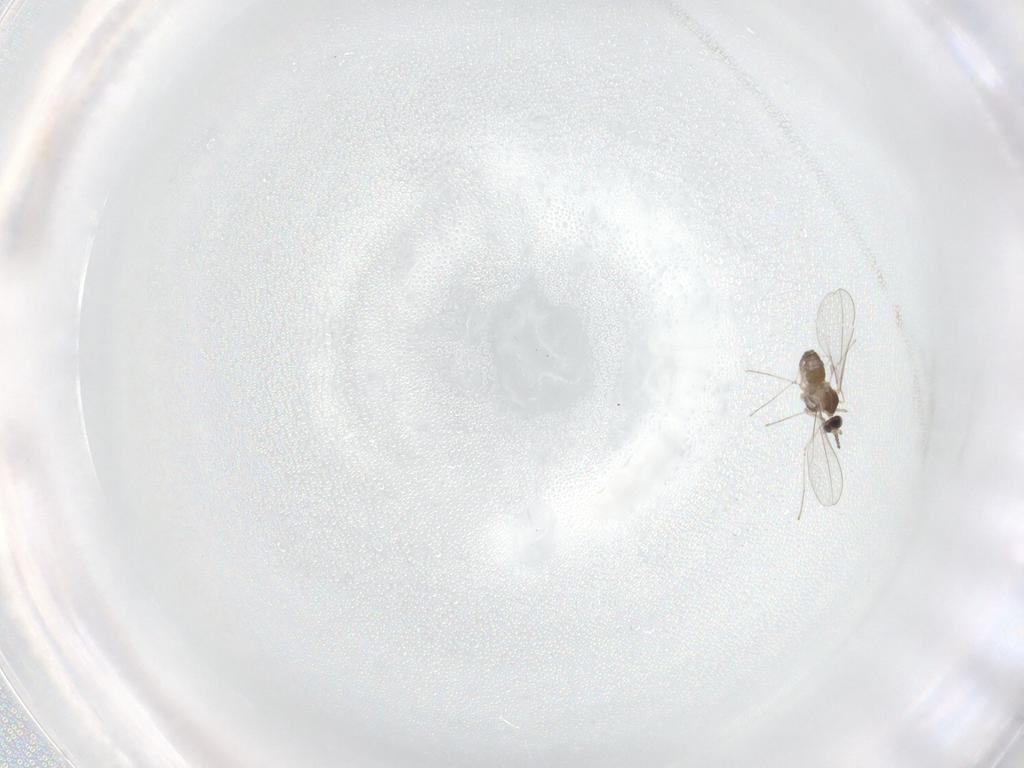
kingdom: Animalia
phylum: Arthropoda
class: Insecta
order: Diptera
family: Cecidomyiidae
